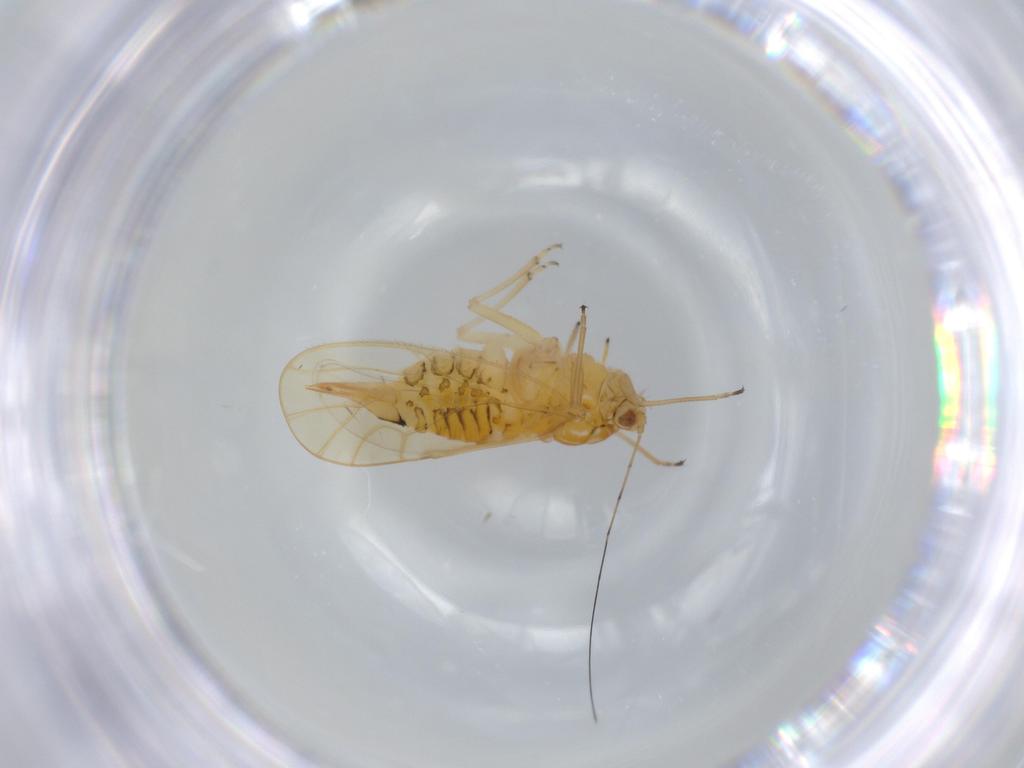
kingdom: Animalia
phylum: Arthropoda
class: Insecta
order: Hemiptera
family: Psyllidae
